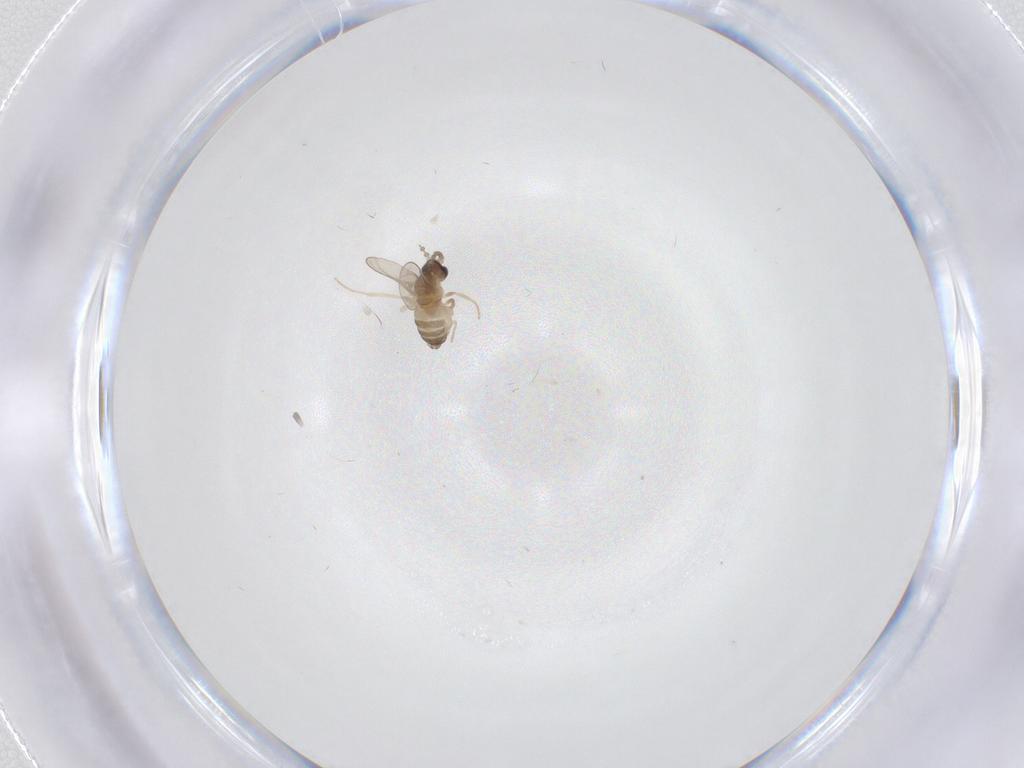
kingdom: Animalia
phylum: Arthropoda
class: Insecta
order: Diptera
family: Cecidomyiidae
